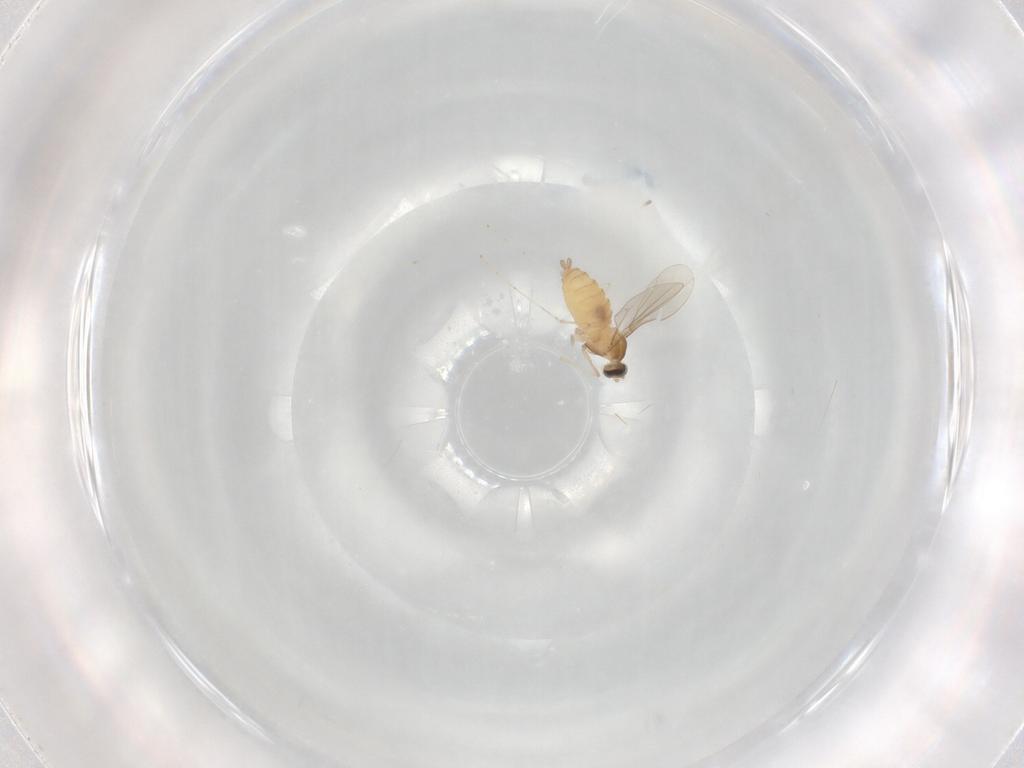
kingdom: Animalia
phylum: Arthropoda
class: Insecta
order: Diptera
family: Cecidomyiidae
